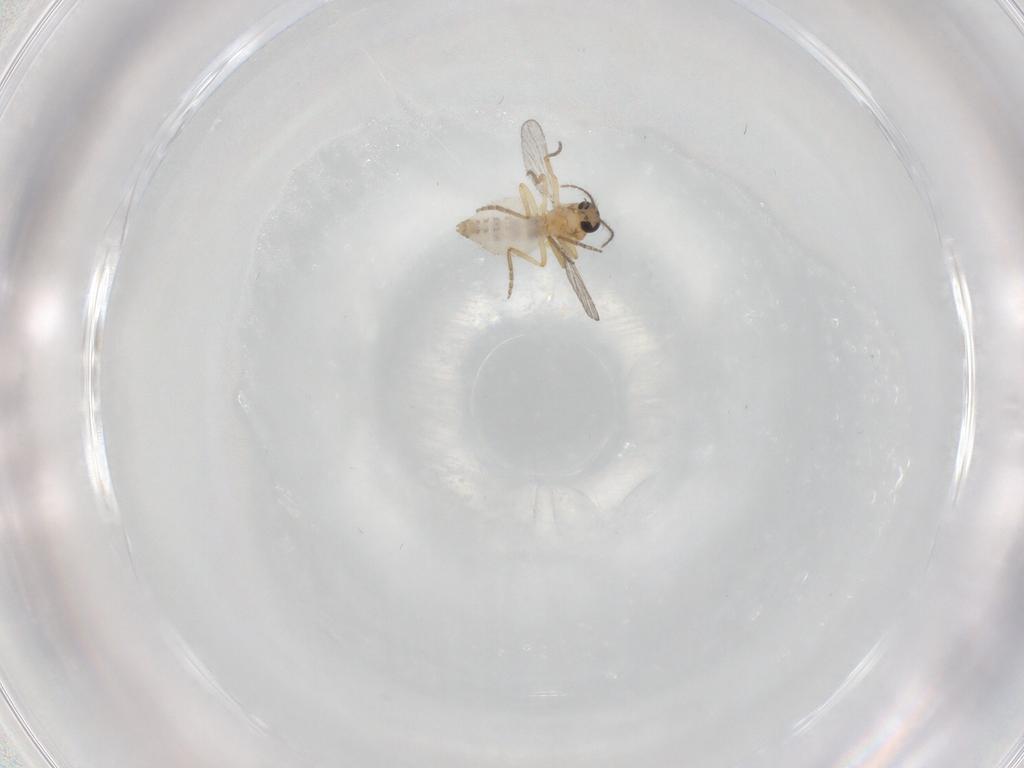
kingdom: Animalia
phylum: Arthropoda
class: Insecta
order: Diptera
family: Ceratopogonidae
